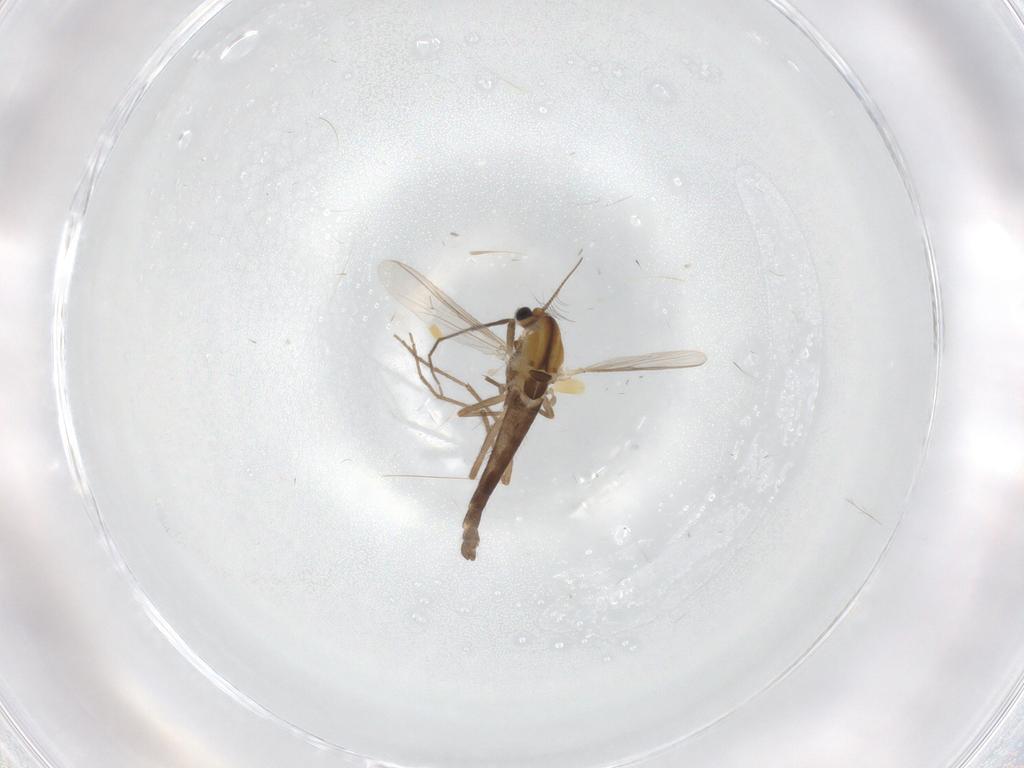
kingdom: Animalia
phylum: Arthropoda
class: Insecta
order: Diptera
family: Chironomidae
